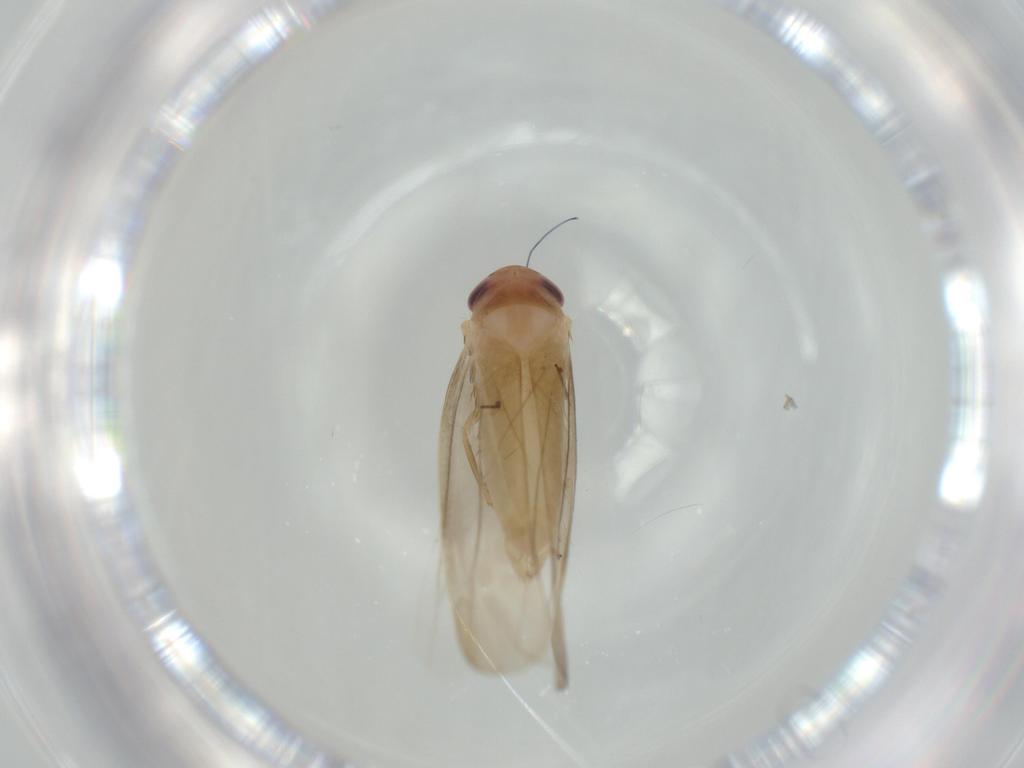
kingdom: Animalia
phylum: Arthropoda
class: Insecta
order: Hemiptera
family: Cicadellidae
